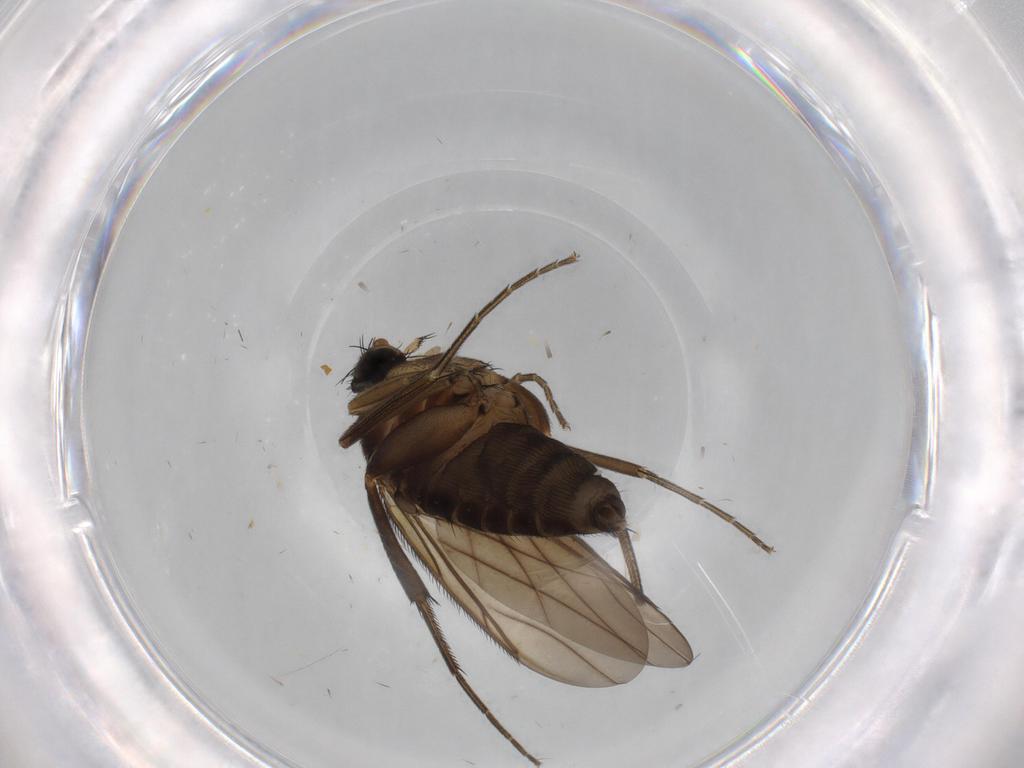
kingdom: Animalia
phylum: Arthropoda
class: Insecta
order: Diptera
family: Phoridae
